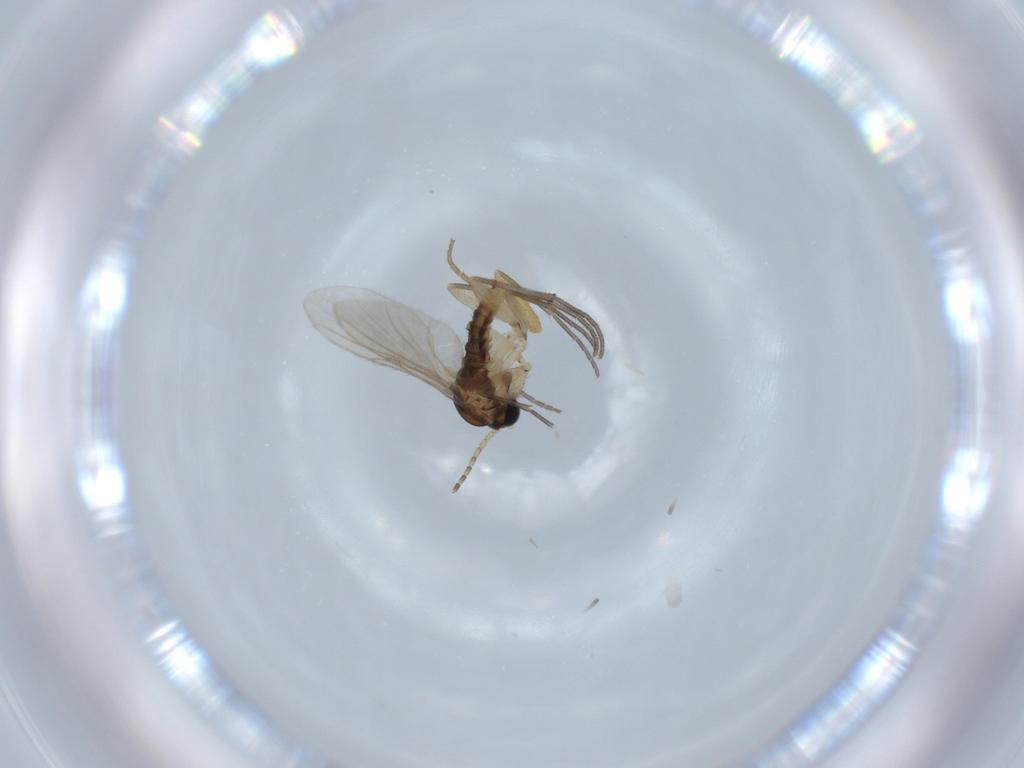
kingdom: Animalia
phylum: Arthropoda
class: Insecta
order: Diptera
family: Drosophilidae
